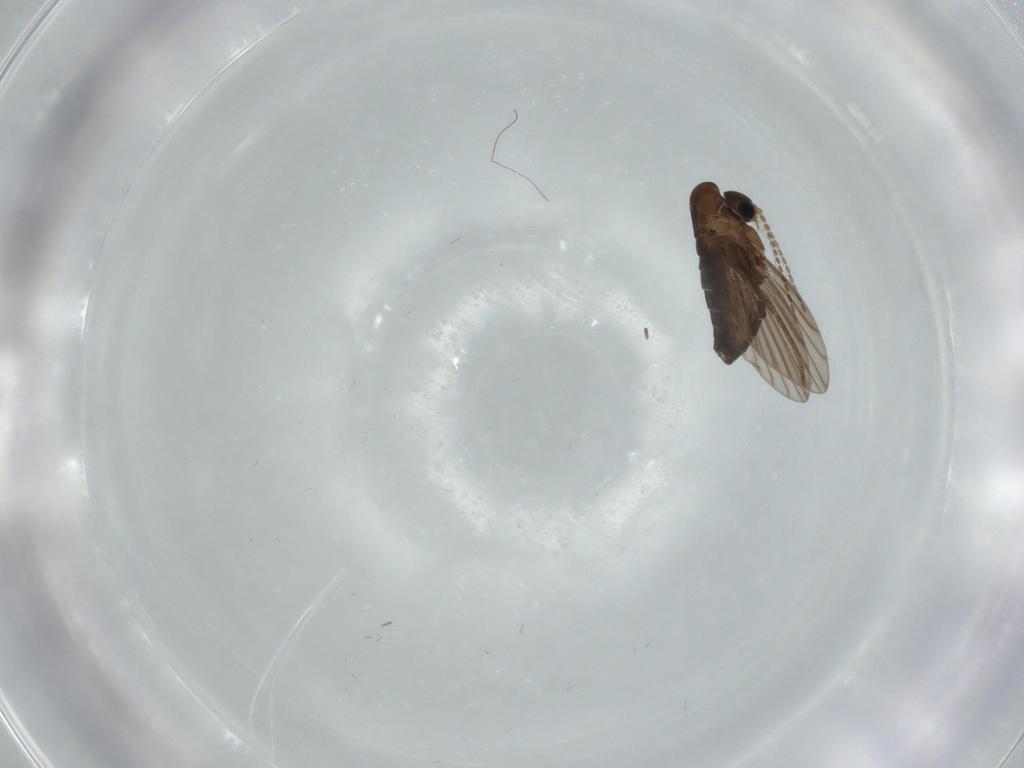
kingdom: Animalia
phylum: Arthropoda
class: Insecta
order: Diptera
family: Psychodidae
